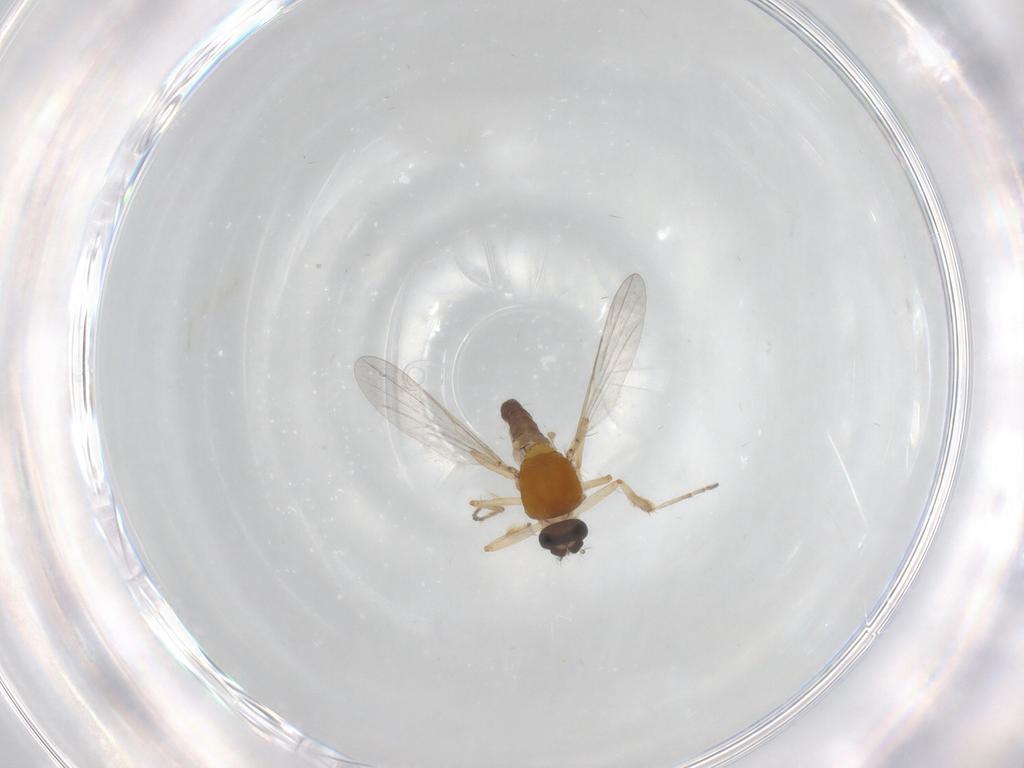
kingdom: Animalia
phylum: Arthropoda
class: Insecta
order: Diptera
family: Ceratopogonidae
